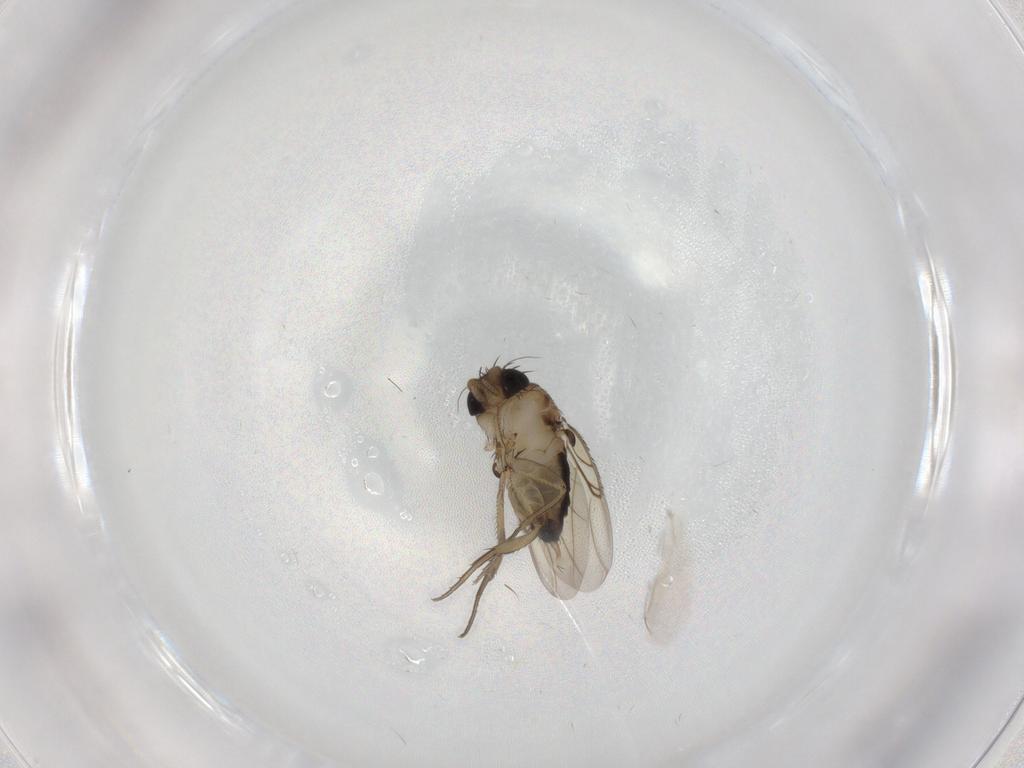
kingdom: Animalia
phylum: Arthropoda
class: Insecta
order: Diptera
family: Phoridae
